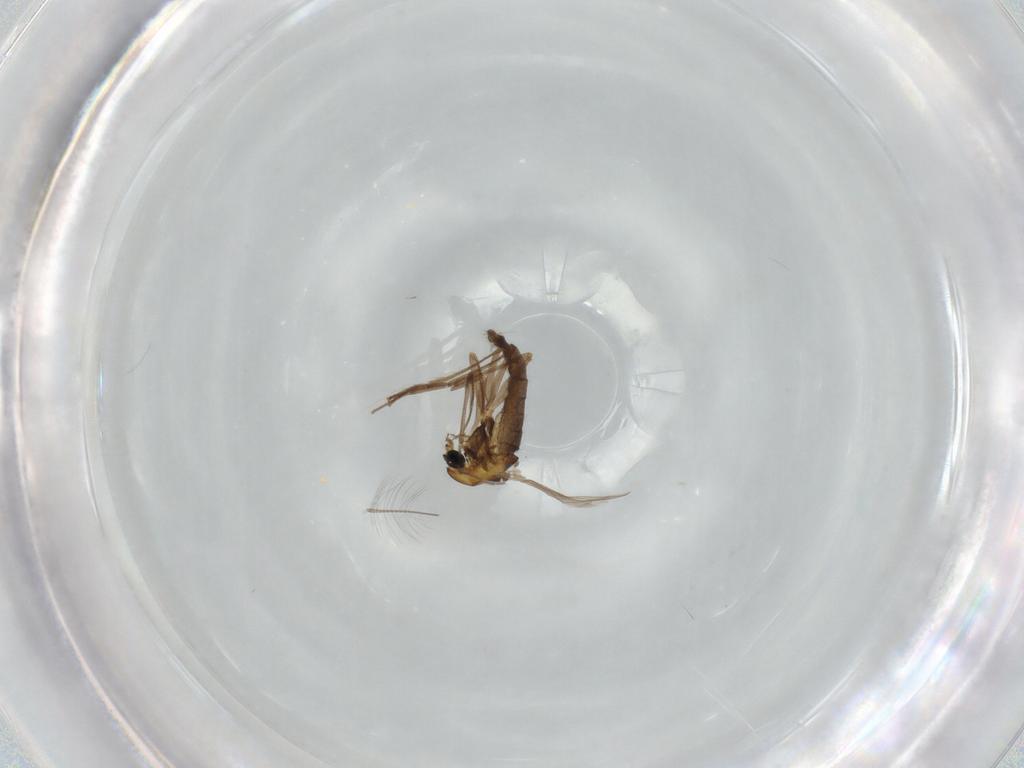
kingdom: Animalia
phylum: Arthropoda
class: Insecta
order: Diptera
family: Chironomidae
